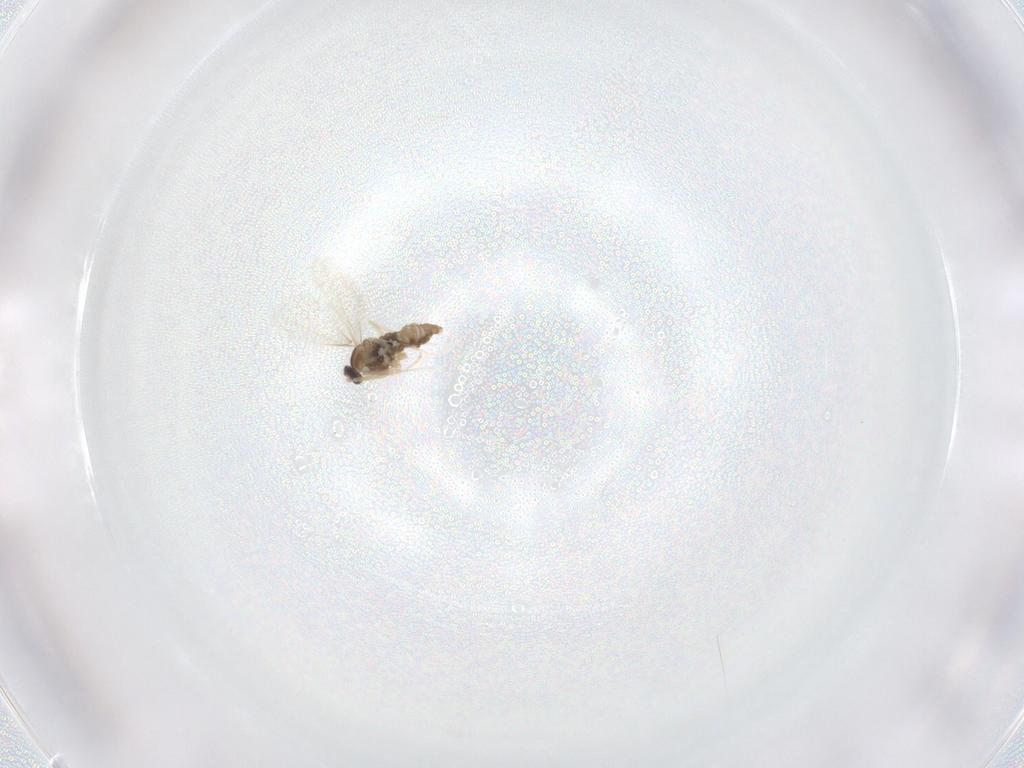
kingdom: Animalia
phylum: Arthropoda
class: Insecta
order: Diptera
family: Cecidomyiidae
